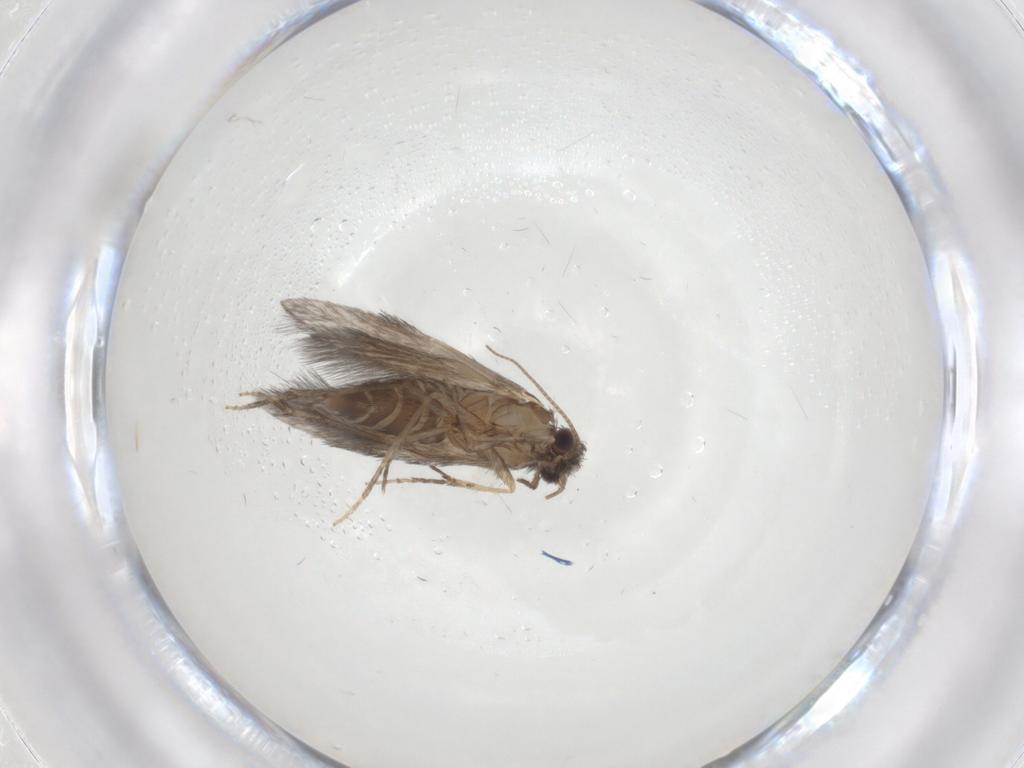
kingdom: Animalia
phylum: Arthropoda
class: Insecta
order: Trichoptera
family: Hydroptilidae
